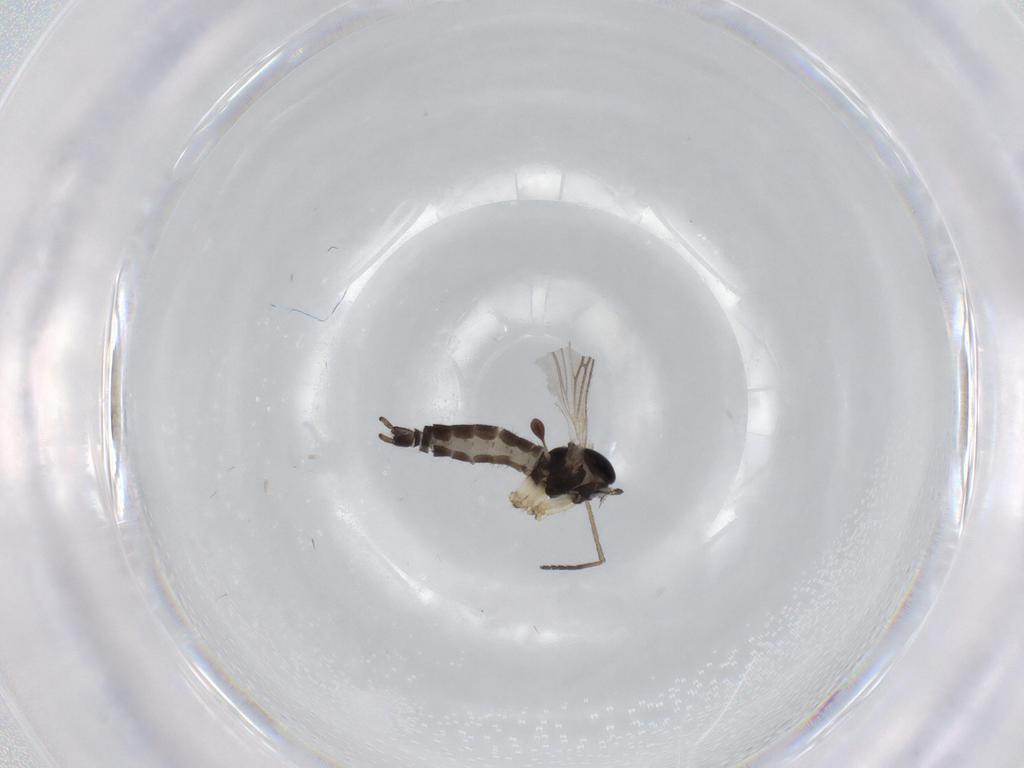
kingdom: Animalia
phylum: Arthropoda
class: Insecta
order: Diptera
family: Sciaridae
